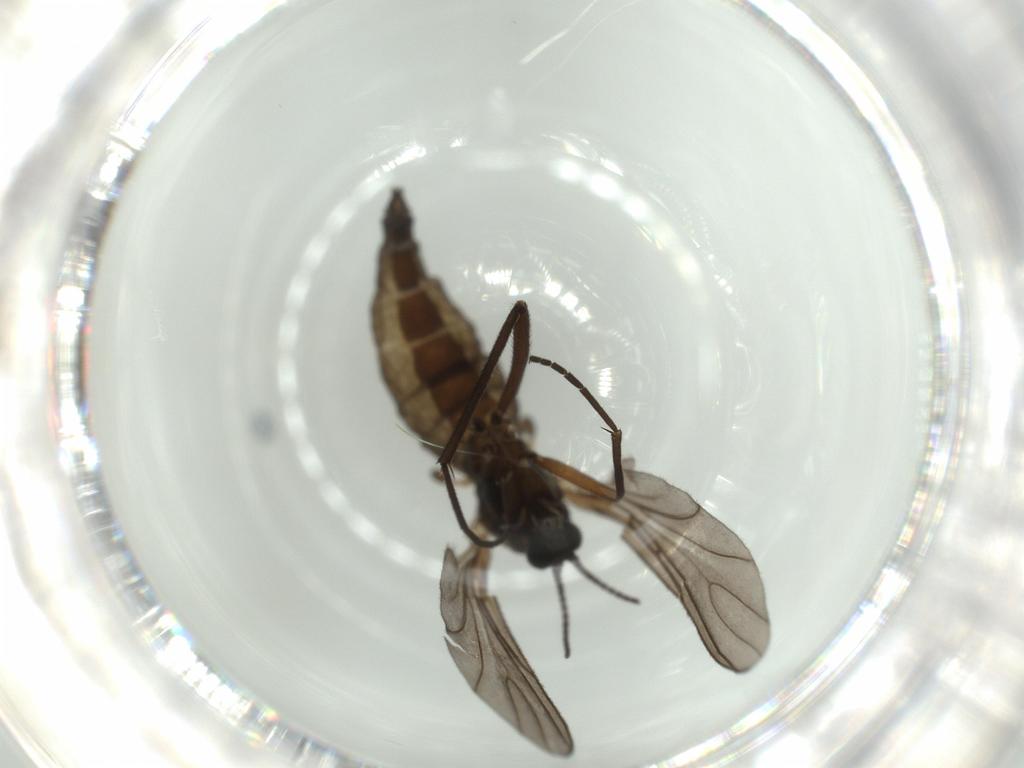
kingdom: Animalia
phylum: Arthropoda
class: Insecta
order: Diptera
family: Sciaridae
